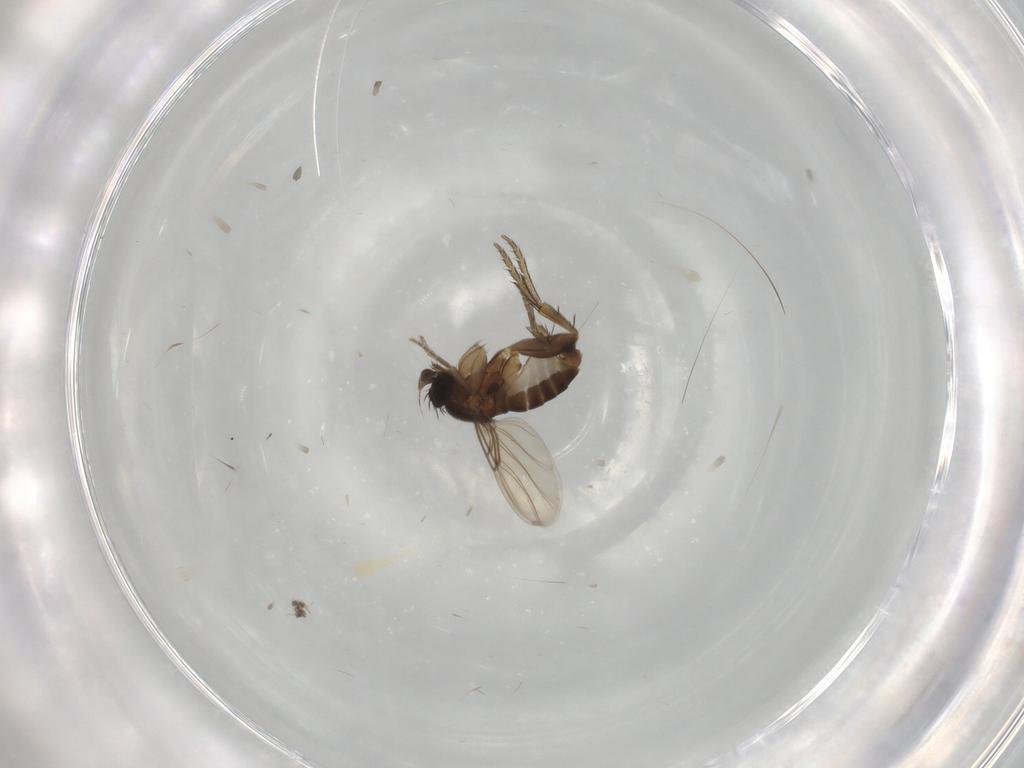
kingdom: Animalia
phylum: Arthropoda
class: Insecta
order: Diptera
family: Phoridae
